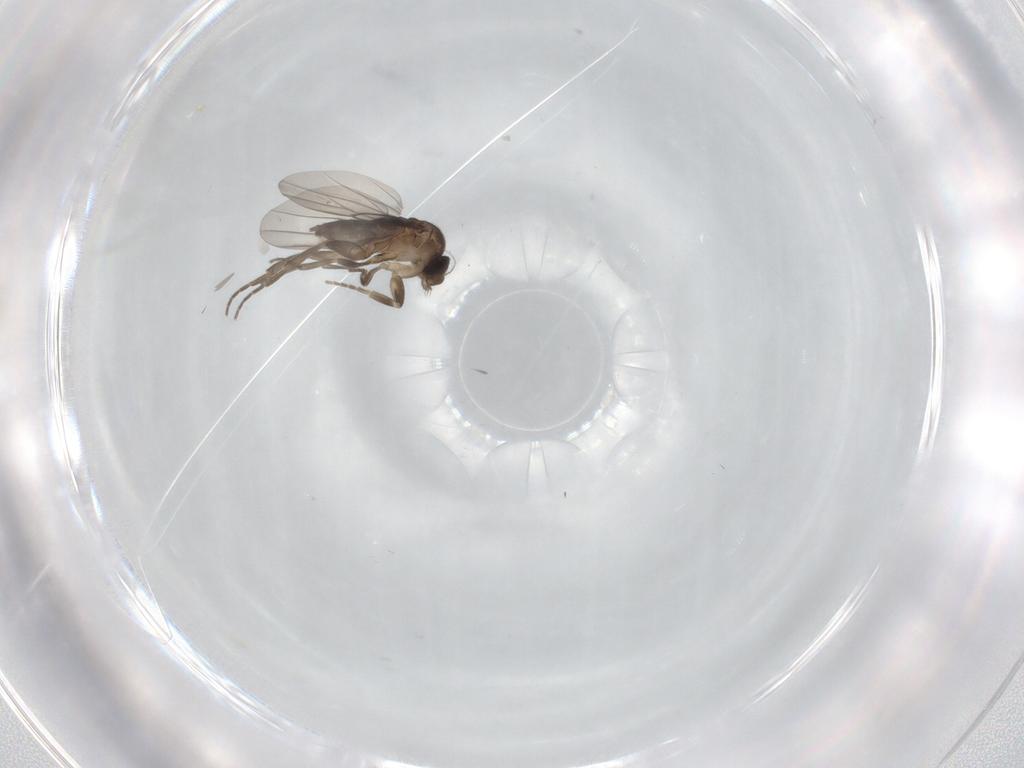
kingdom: Animalia
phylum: Arthropoda
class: Insecta
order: Diptera
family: Phoridae
